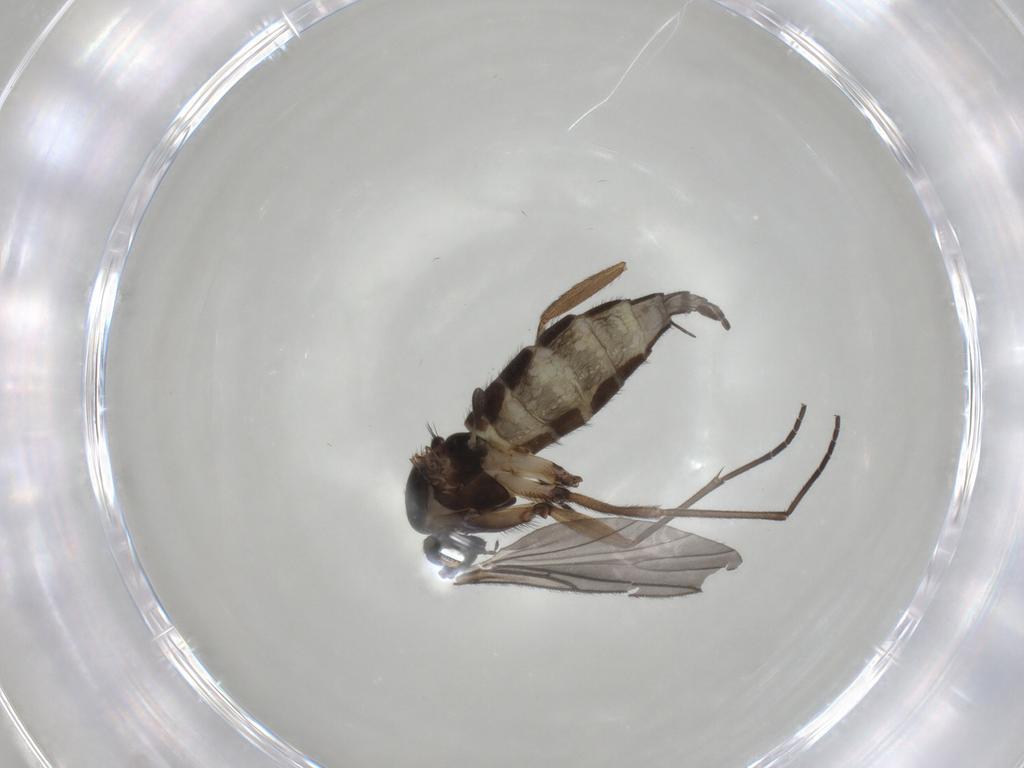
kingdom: Animalia
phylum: Arthropoda
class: Insecta
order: Diptera
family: Sciaridae
